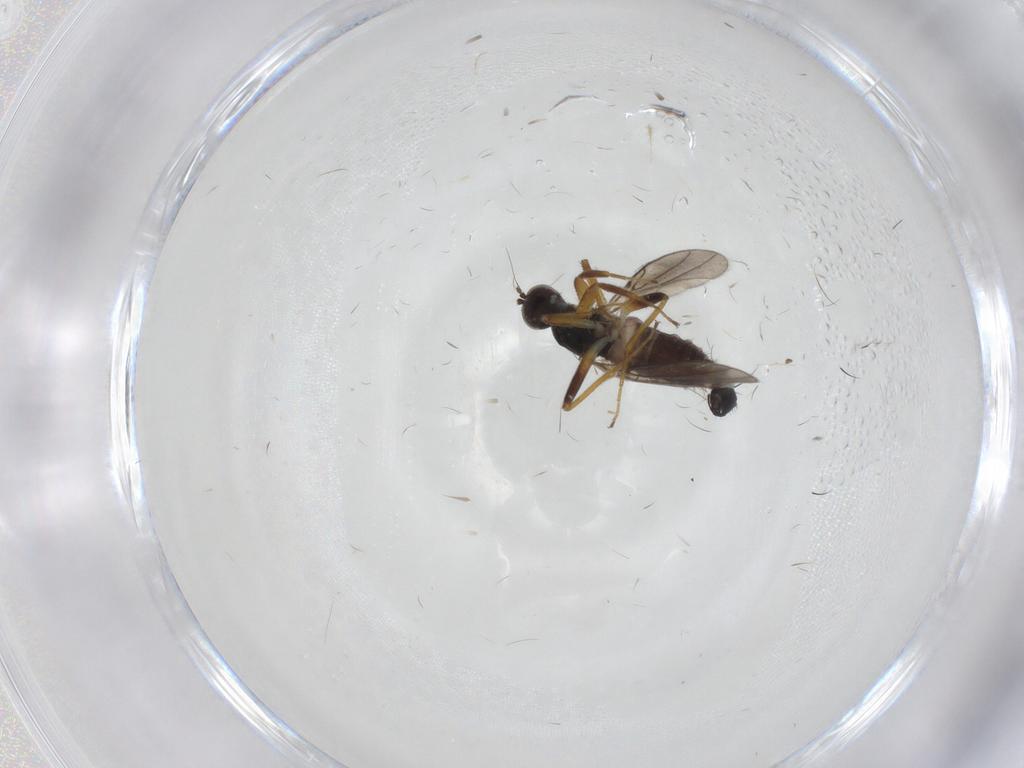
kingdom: Animalia
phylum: Arthropoda
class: Insecta
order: Diptera
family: Hybotidae
